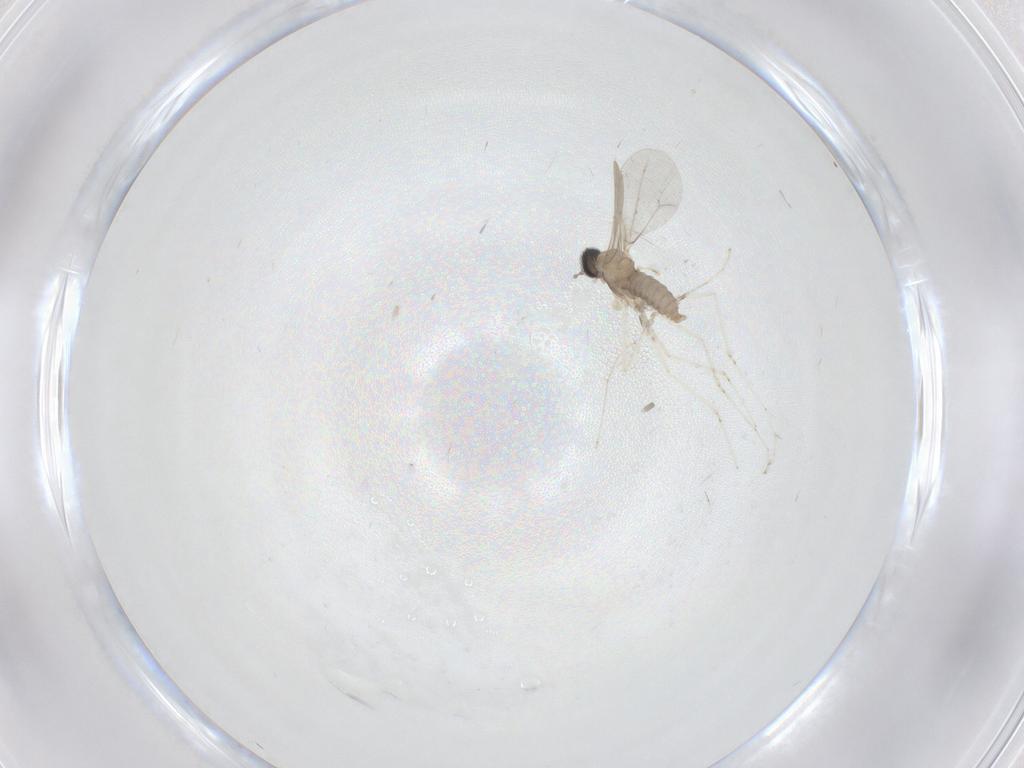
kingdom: Animalia
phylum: Arthropoda
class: Insecta
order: Diptera
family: Cecidomyiidae
